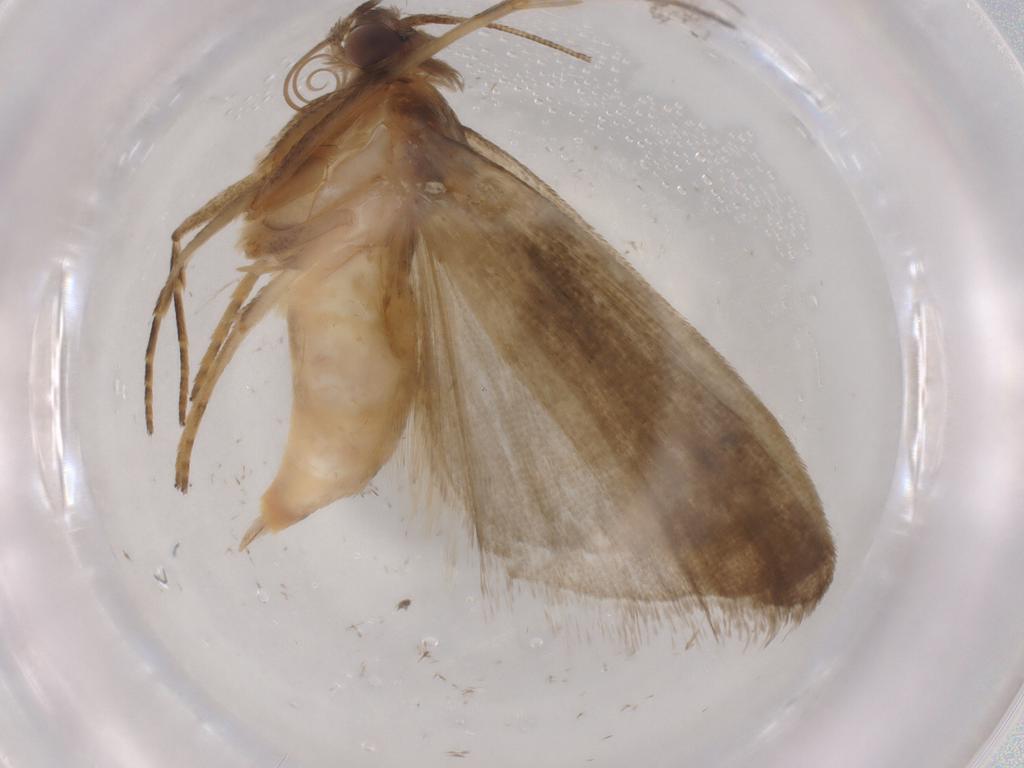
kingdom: Animalia
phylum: Arthropoda
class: Insecta
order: Lepidoptera
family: Noctuidae
